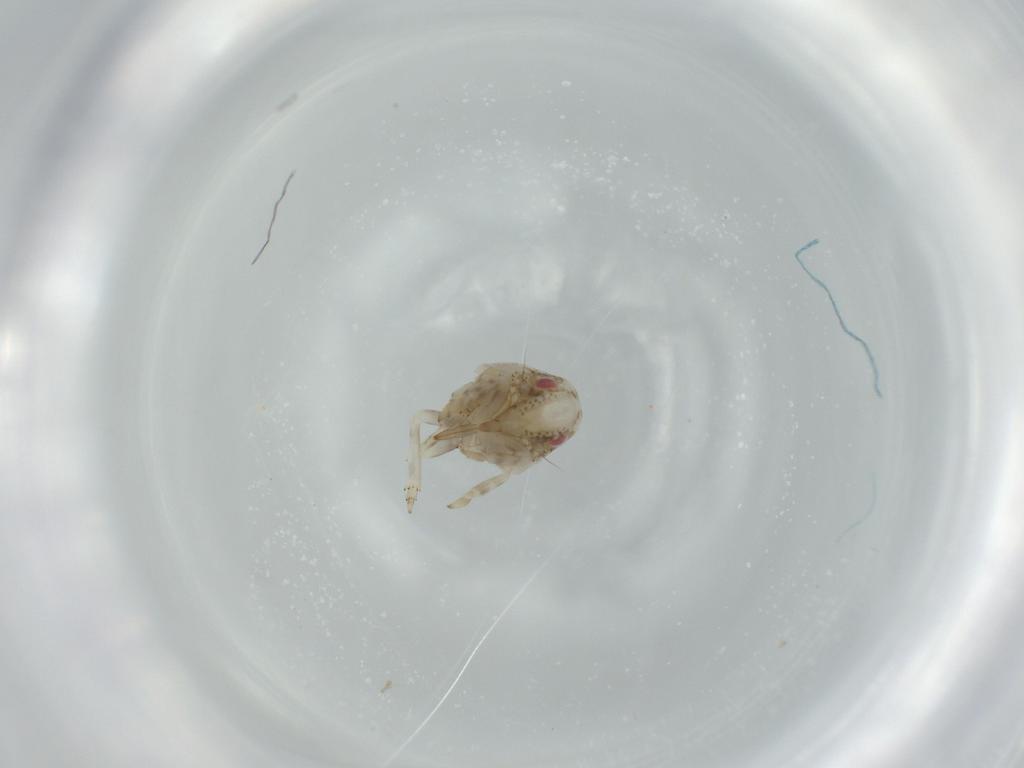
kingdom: Animalia
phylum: Arthropoda
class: Insecta
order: Hemiptera
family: Acanaloniidae
